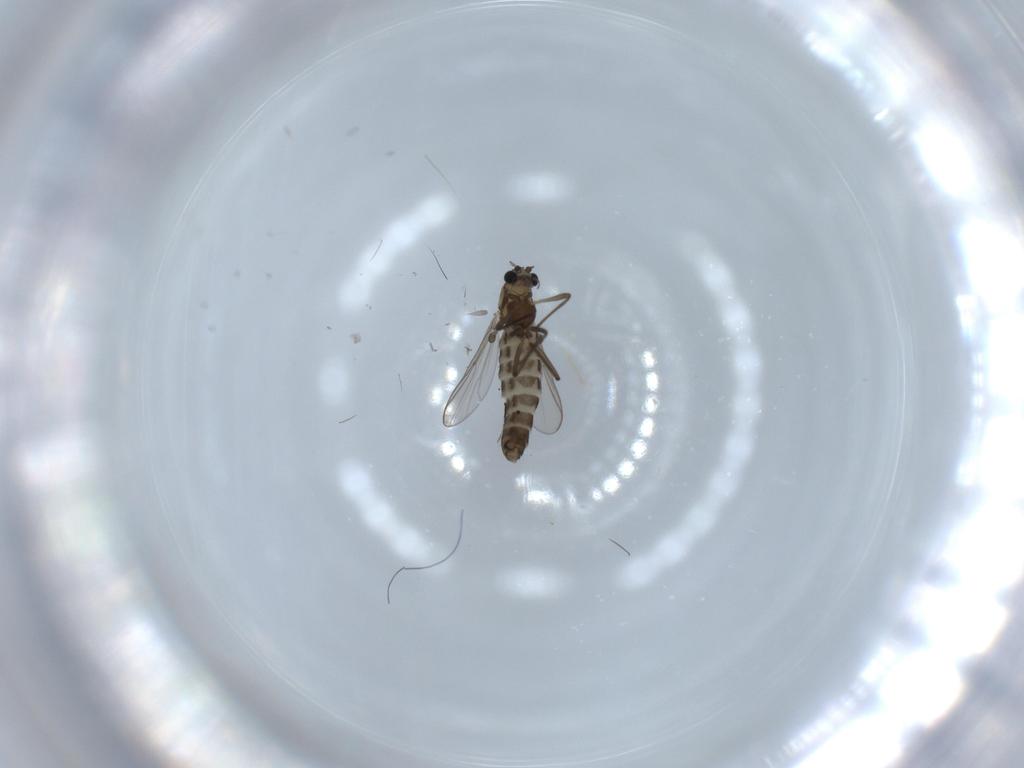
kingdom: Animalia
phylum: Arthropoda
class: Insecta
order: Diptera
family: Chironomidae
